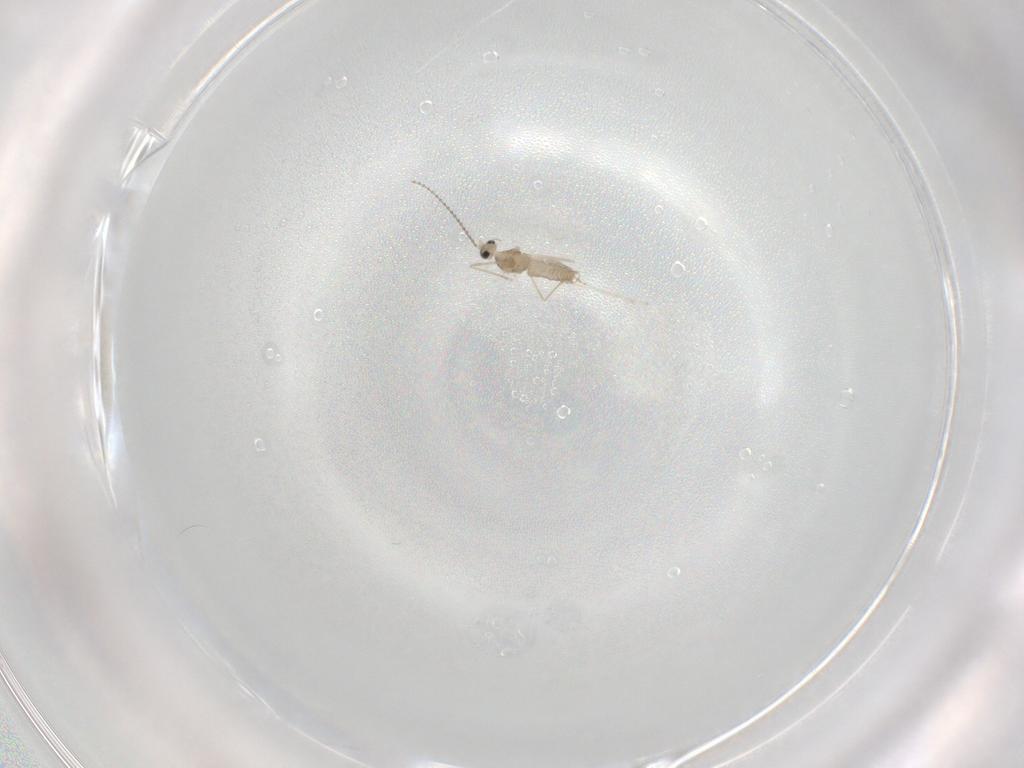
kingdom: Animalia
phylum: Arthropoda
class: Insecta
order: Diptera
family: Cecidomyiidae
